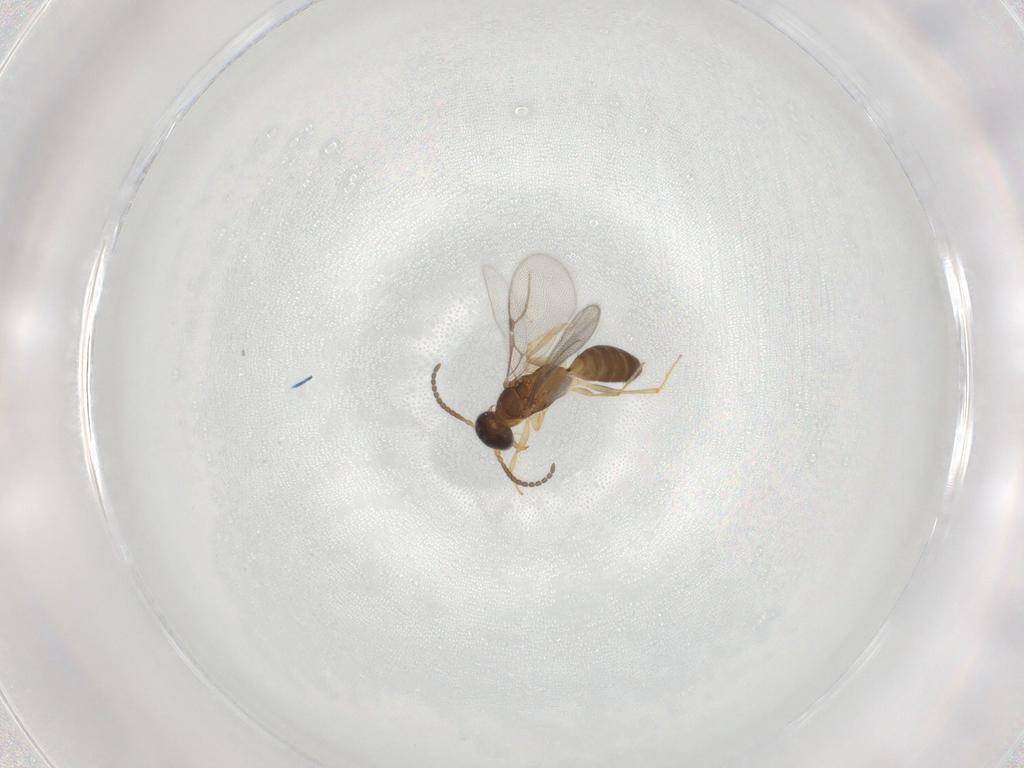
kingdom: Animalia
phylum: Arthropoda
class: Insecta
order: Hymenoptera
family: Bethylidae
